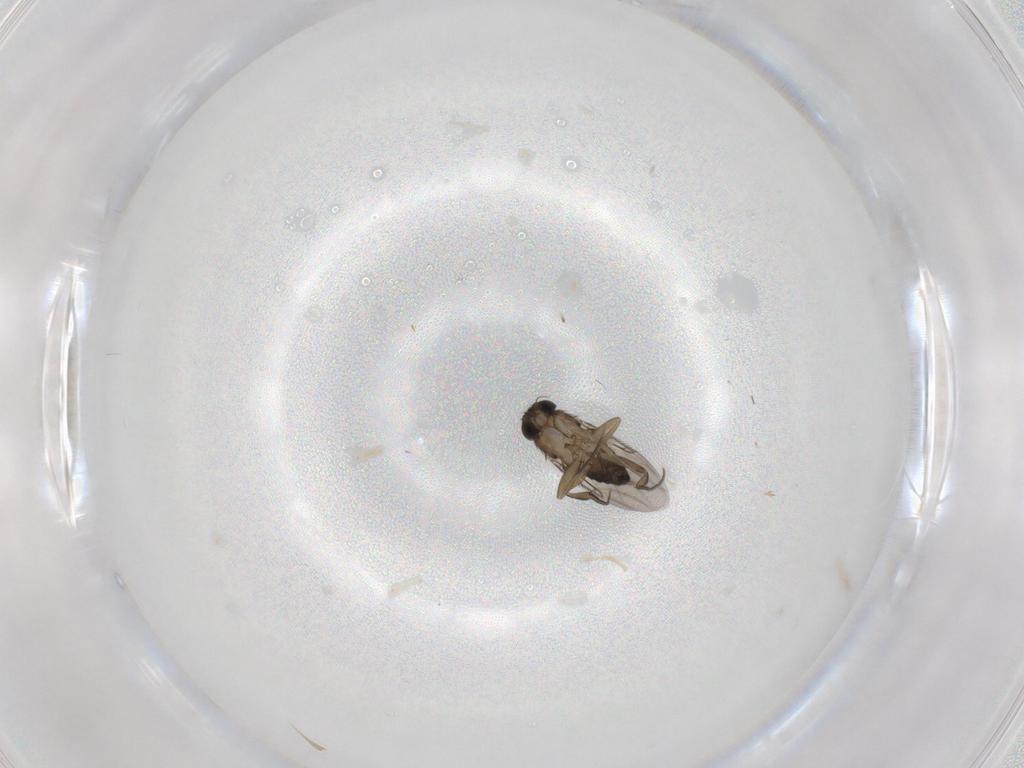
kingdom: Animalia
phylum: Arthropoda
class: Insecta
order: Diptera
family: Phoridae
